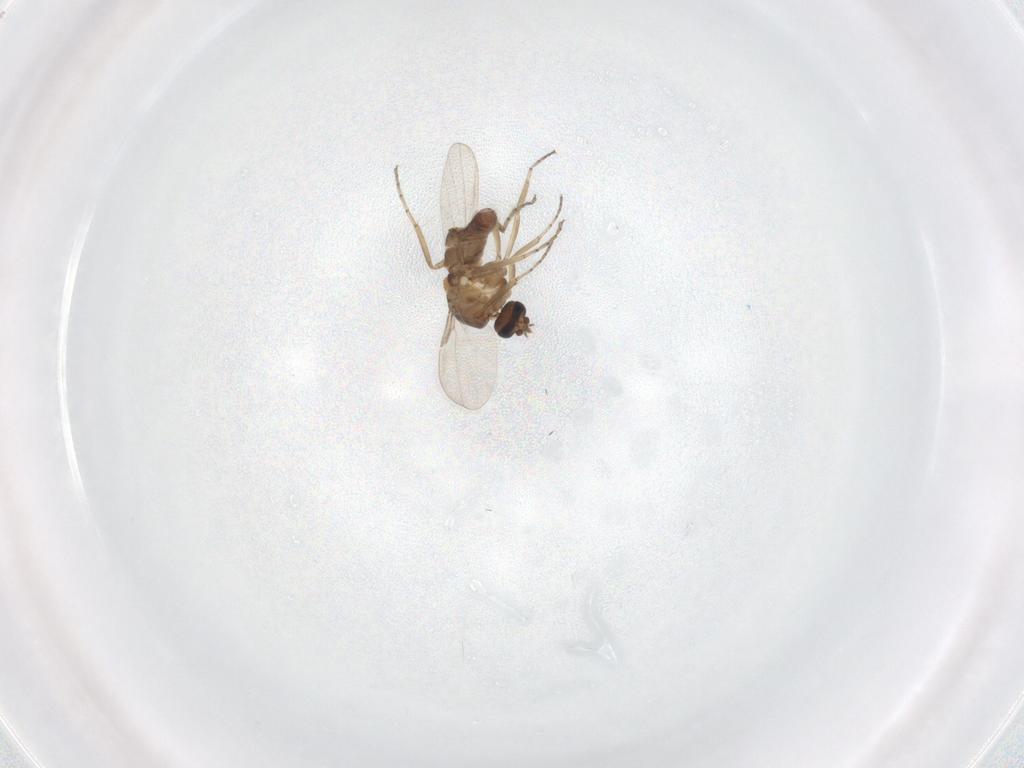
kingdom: Animalia
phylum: Arthropoda
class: Insecta
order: Diptera
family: Ceratopogonidae
